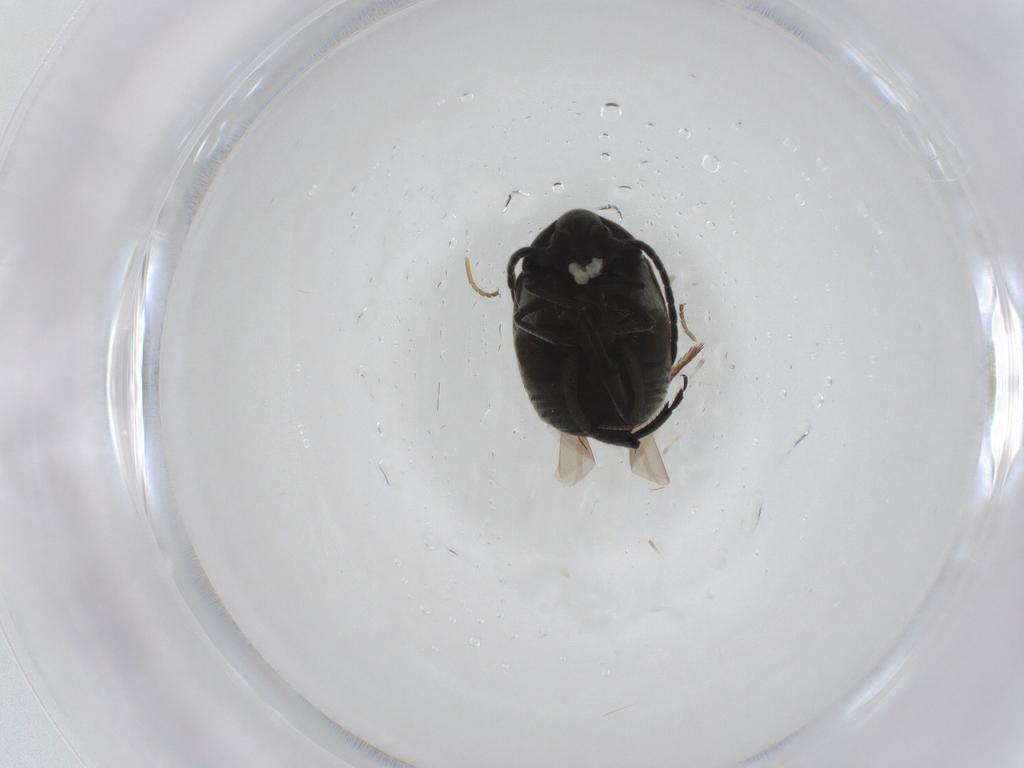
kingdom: Animalia
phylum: Arthropoda
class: Insecta
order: Coleoptera
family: Chrysomelidae
